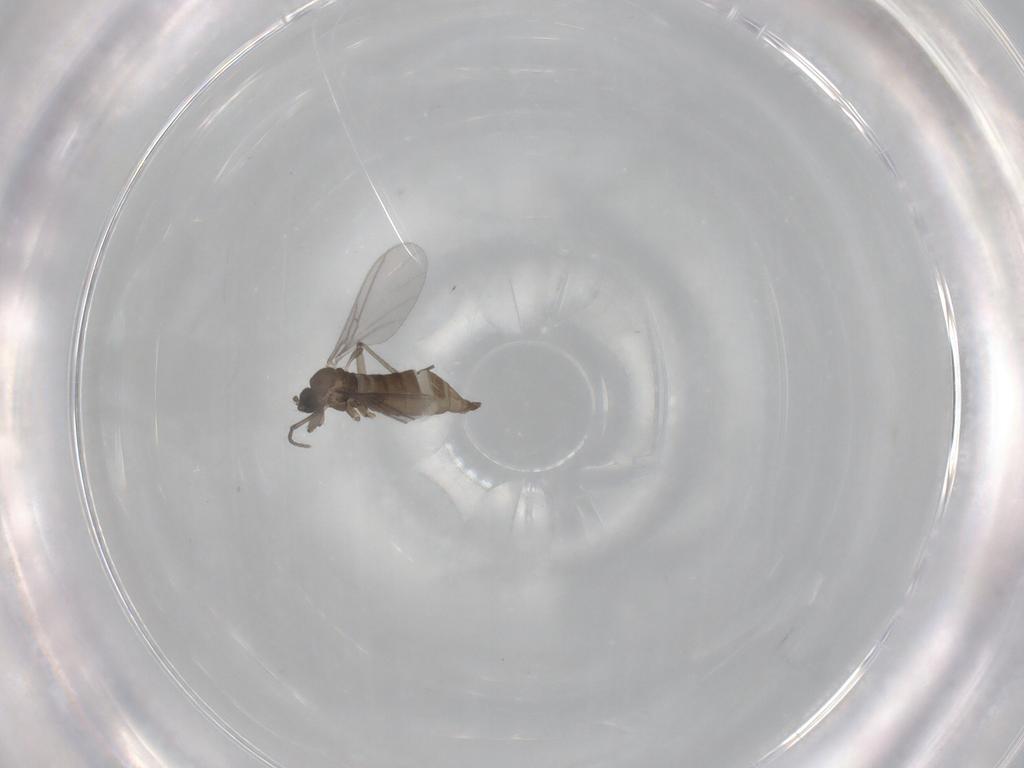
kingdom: Animalia
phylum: Arthropoda
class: Insecta
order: Diptera
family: Sciaridae
